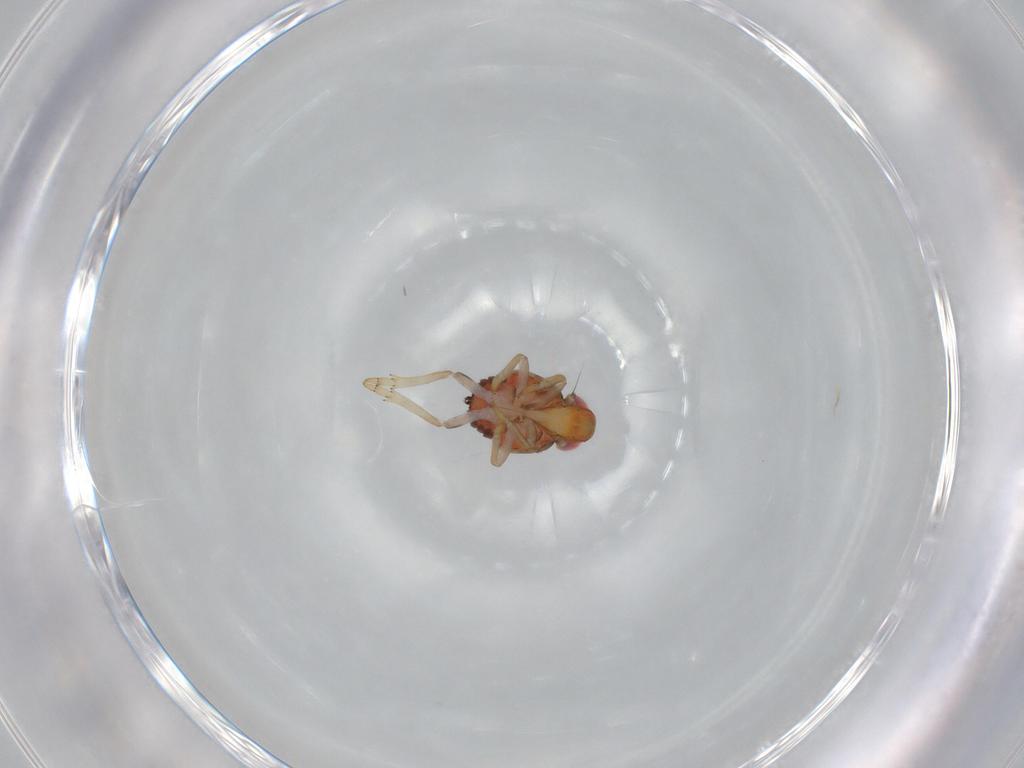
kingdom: Animalia
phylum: Arthropoda
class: Insecta
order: Hemiptera
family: Issidae
